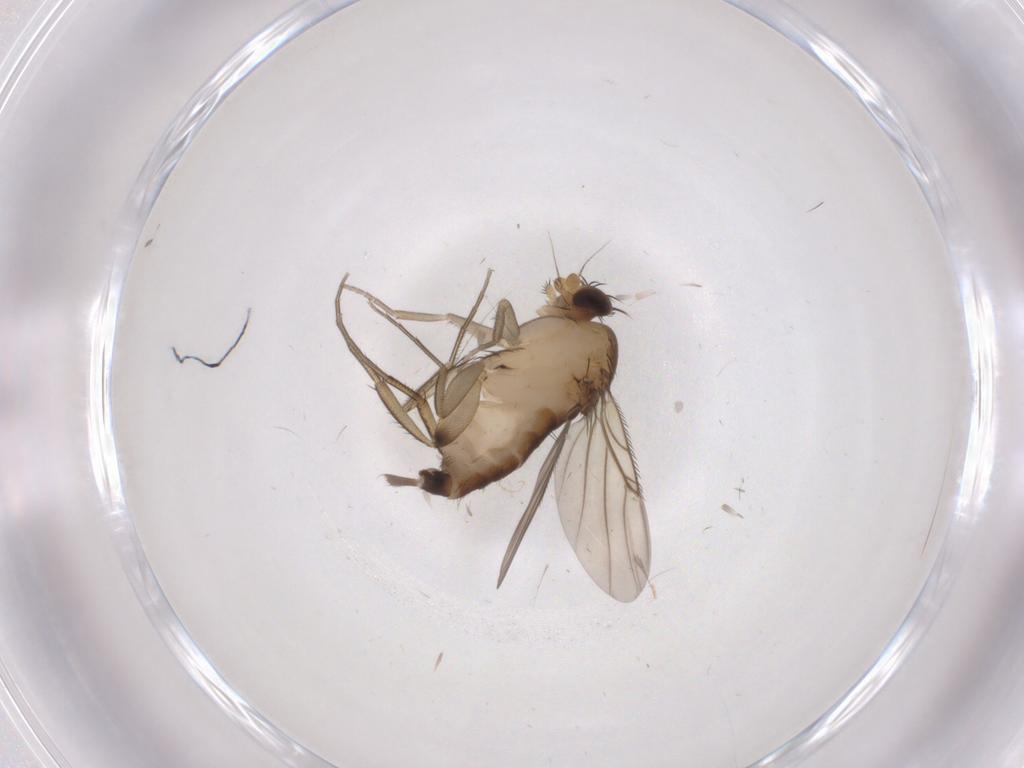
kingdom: Animalia
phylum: Arthropoda
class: Insecta
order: Diptera
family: Phoridae
